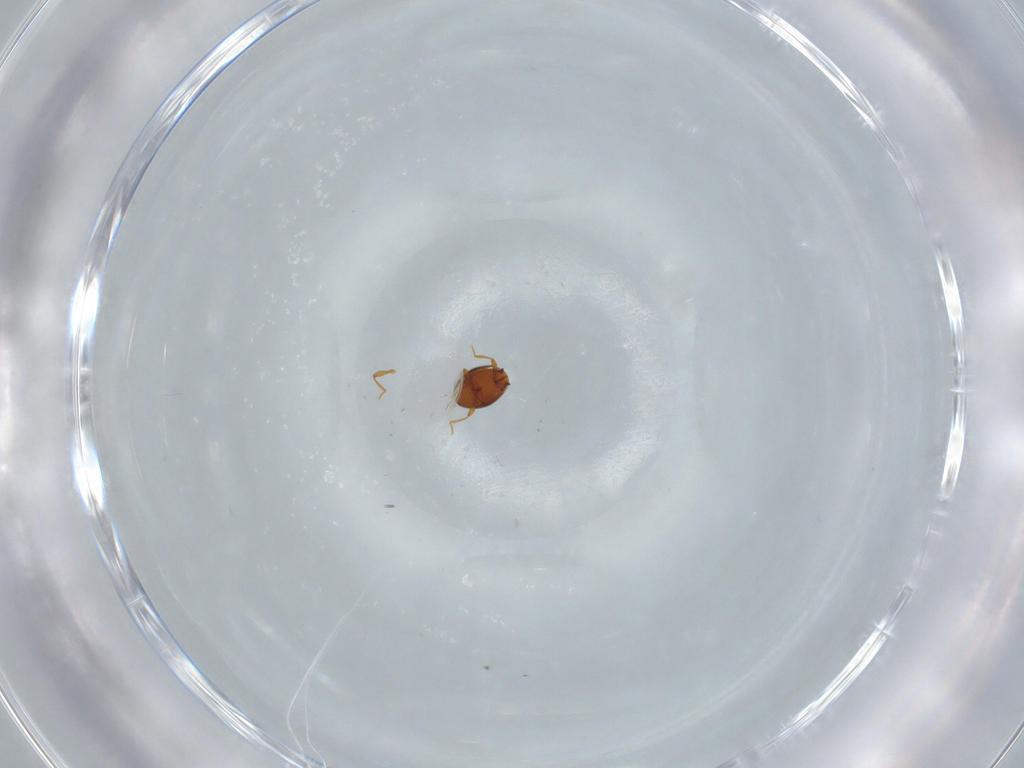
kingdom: Animalia
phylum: Arthropoda
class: Insecta
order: Coleoptera
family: Staphylinidae
